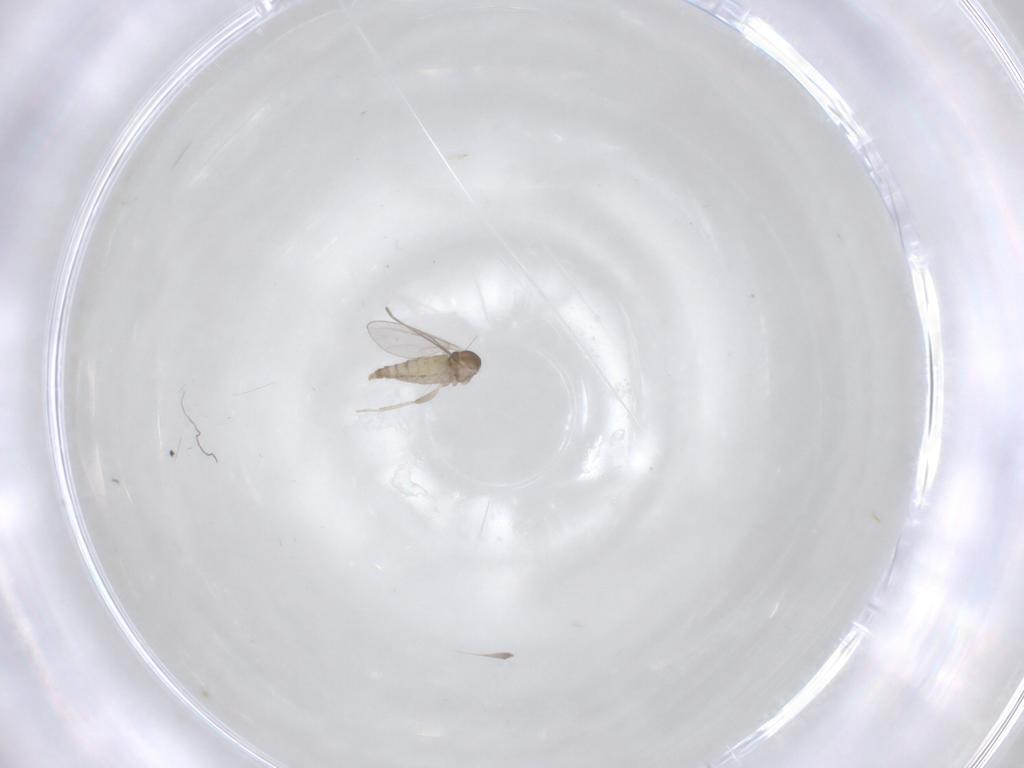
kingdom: Animalia
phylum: Arthropoda
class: Insecta
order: Diptera
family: Cecidomyiidae
